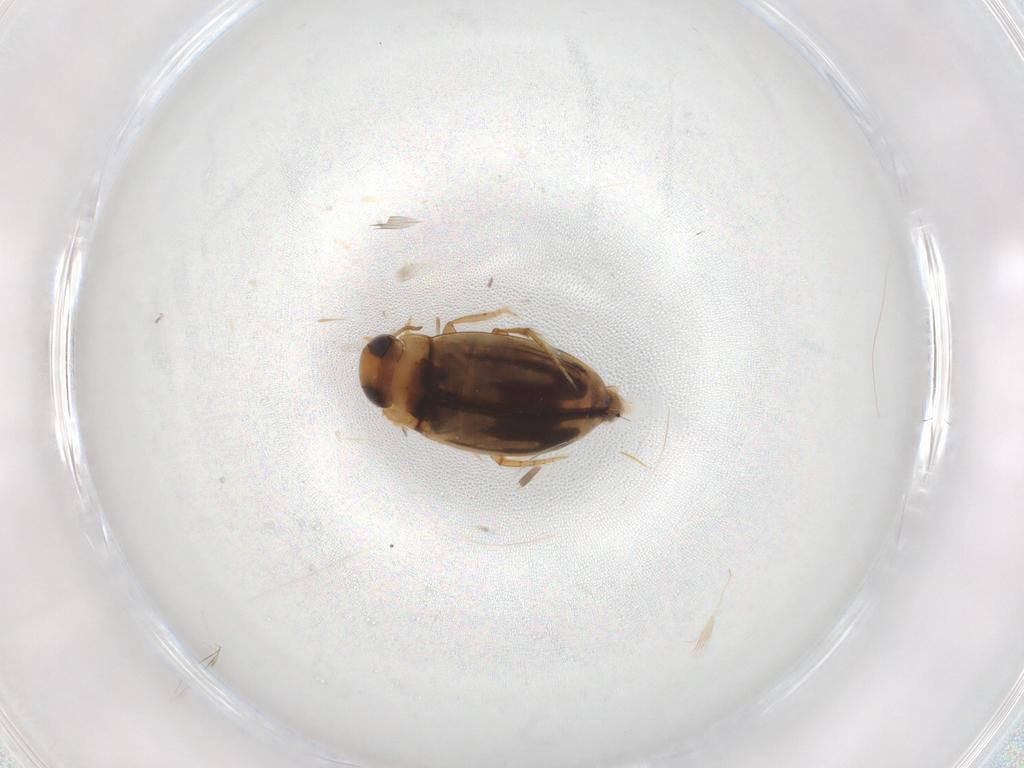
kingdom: Animalia
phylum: Arthropoda
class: Insecta
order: Coleoptera
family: Dytiscidae
